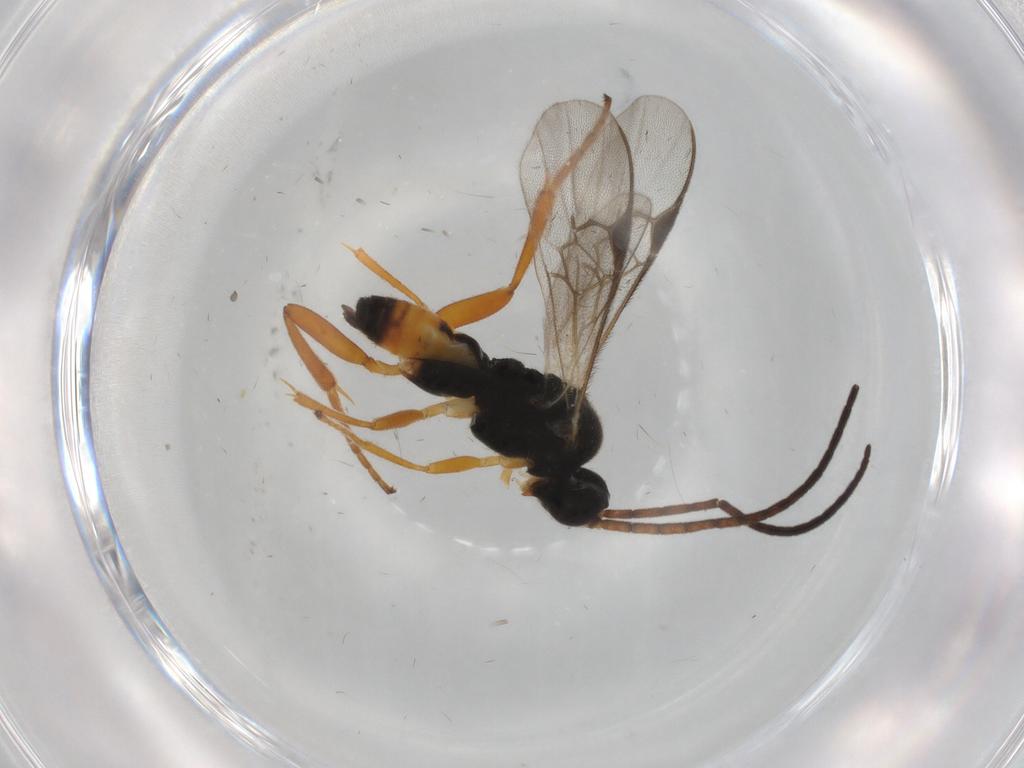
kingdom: Animalia
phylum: Arthropoda
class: Insecta
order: Hymenoptera
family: Braconidae
